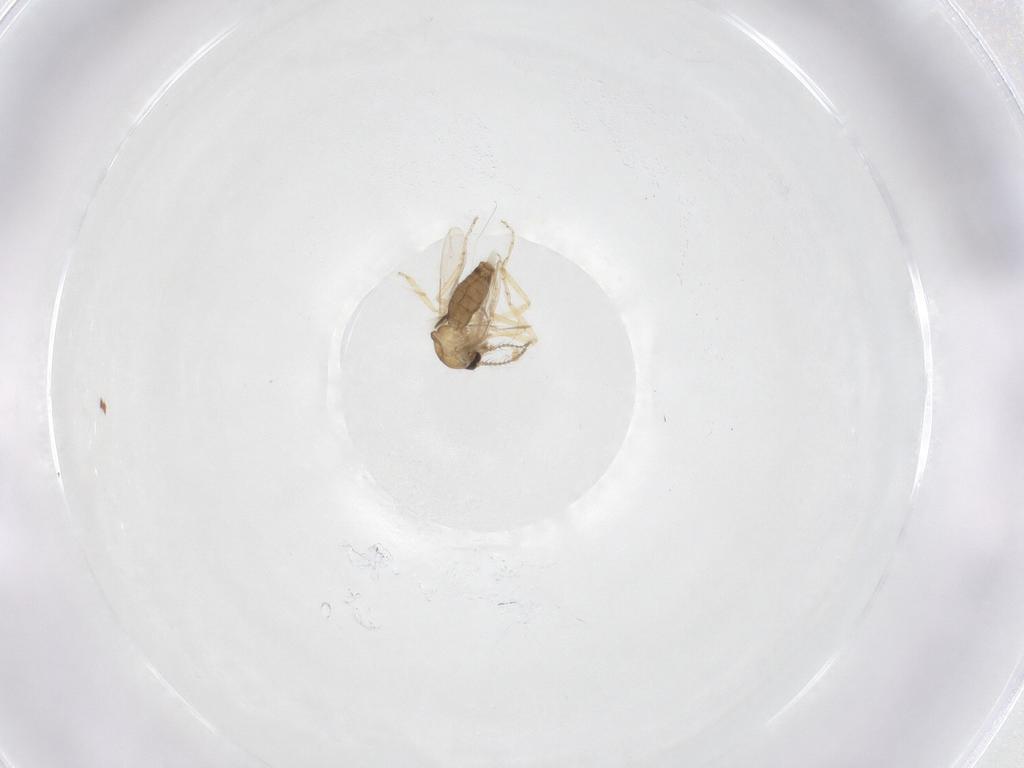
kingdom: Animalia
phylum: Arthropoda
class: Insecta
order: Diptera
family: Ceratopogonidae
